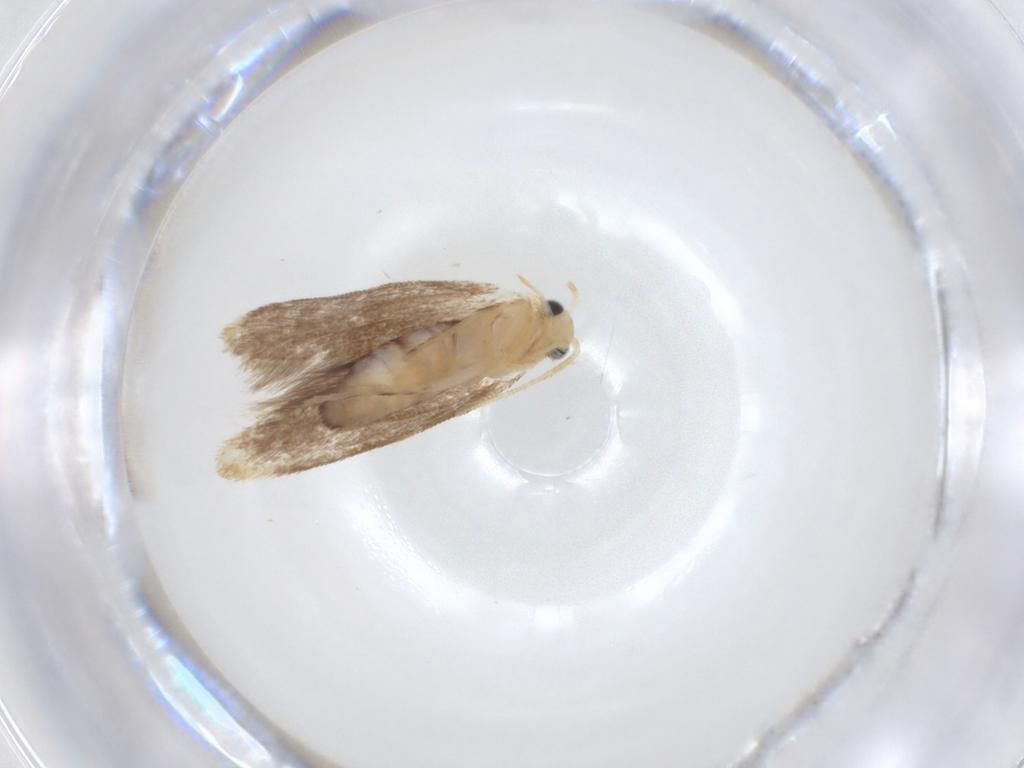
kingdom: Animalia
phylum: Arthropoda
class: Insecta
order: Lepidoptera
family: Dryadaulidae
